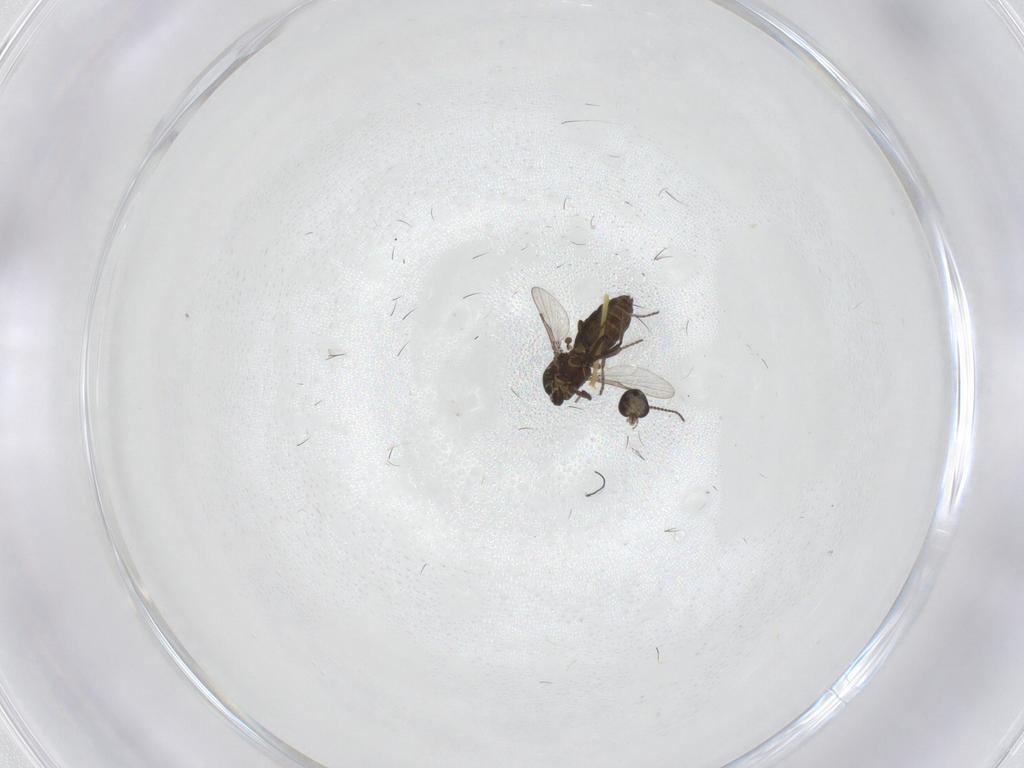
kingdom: Animalia
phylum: Arthropoda
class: Insecta
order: Diptera
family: Sciaridae
